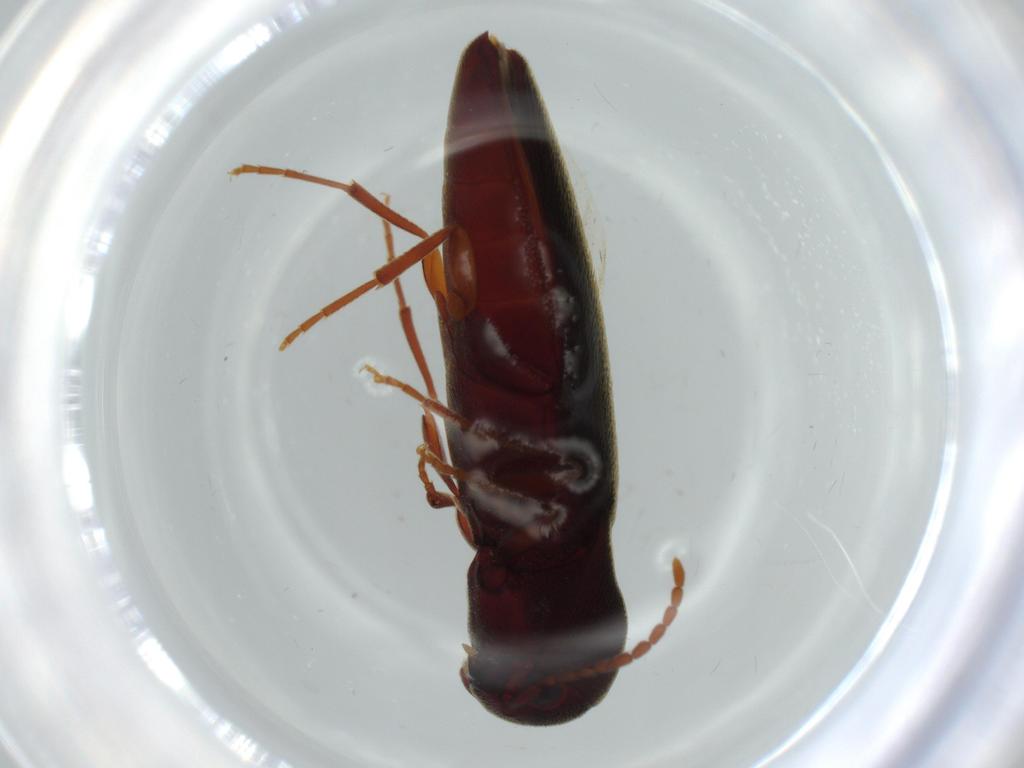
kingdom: Animalia
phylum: Arthropoda
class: Insecta
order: Coleoptera
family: Eucnemidae
